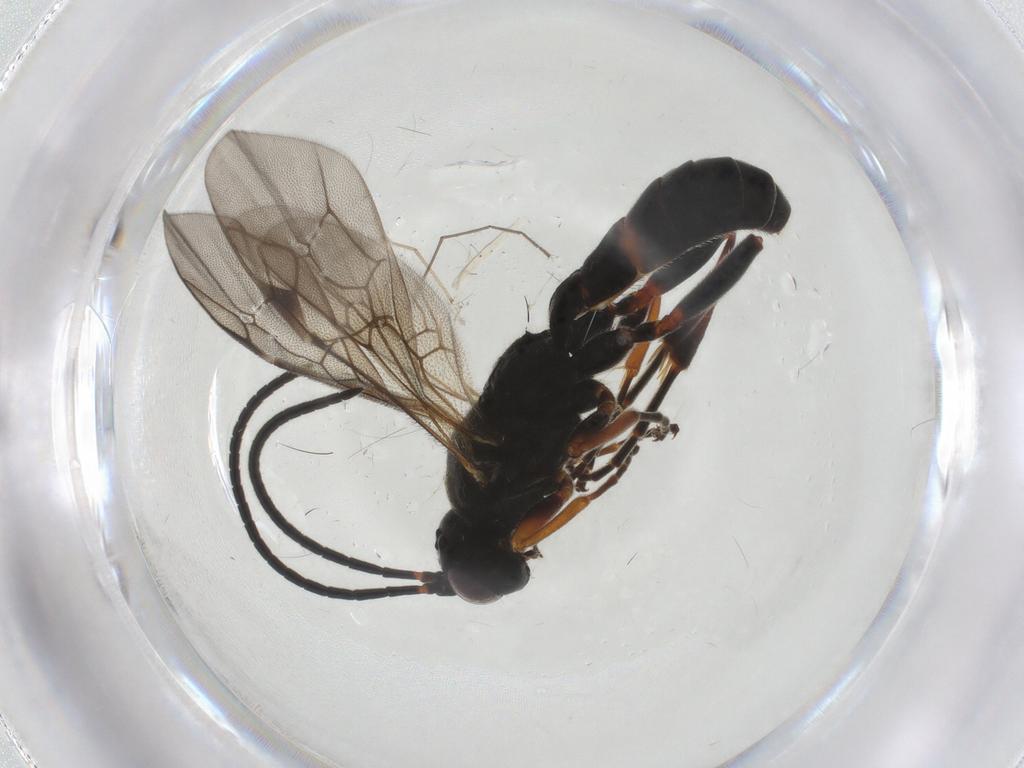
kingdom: Animalia
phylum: Arthropoda
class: Insecta
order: Hymenoptera
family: Ichneumonidae
